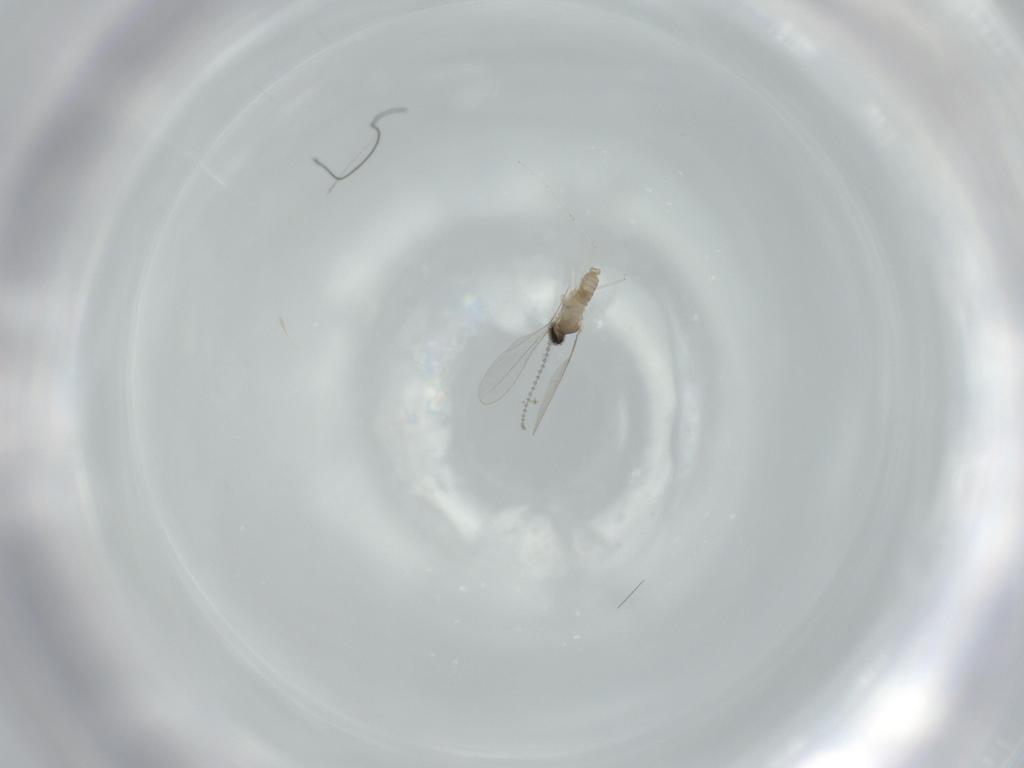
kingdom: Animalia
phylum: Arthropoda
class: Insecta
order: Diptera
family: Cecidomyiidae
